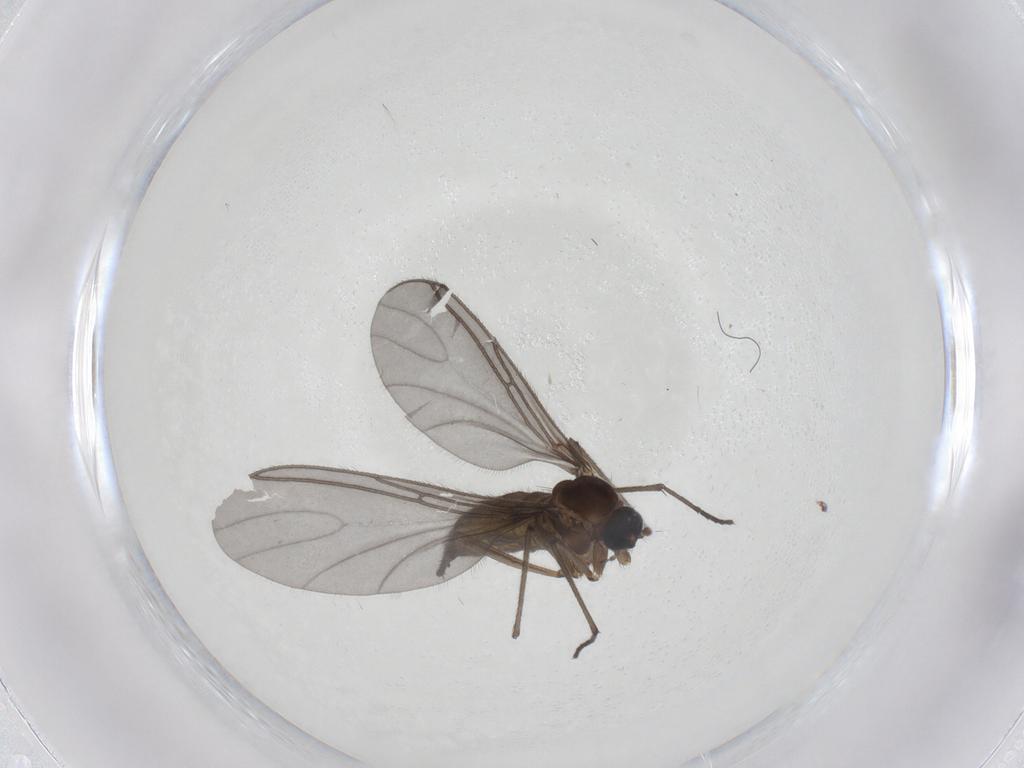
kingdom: Animalia
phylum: Arthropoda
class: Insecta
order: Diptera
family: Sciaridae
